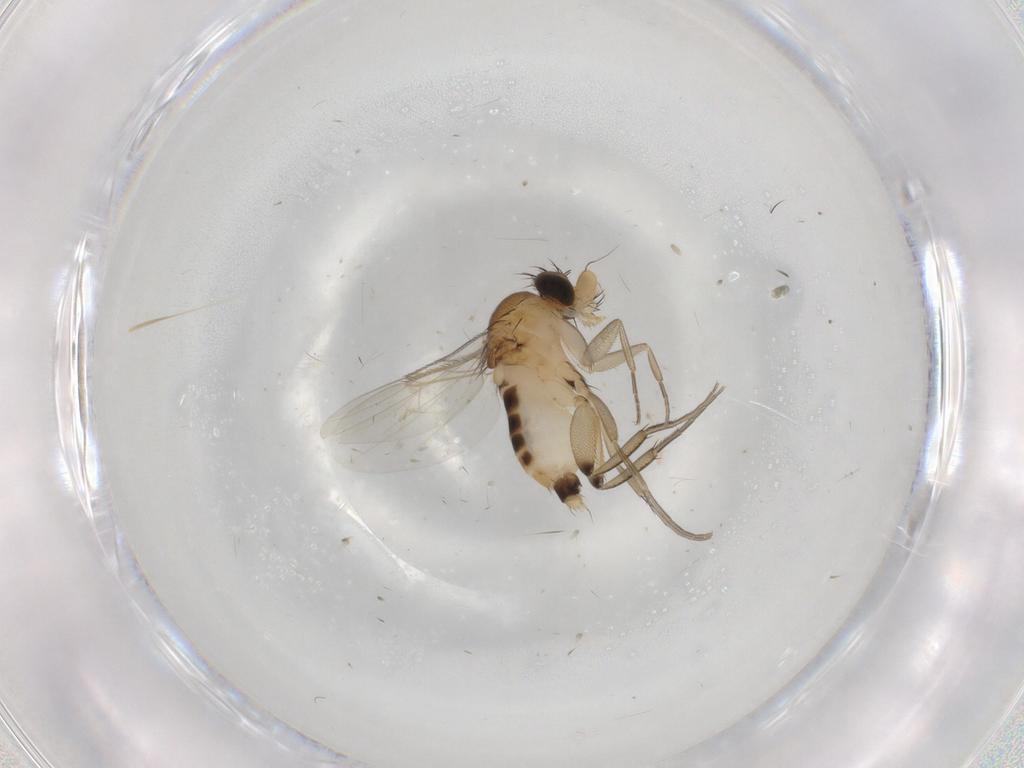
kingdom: Animalia
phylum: Arthropoda
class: Insecta
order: Diptera
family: Phoridae
